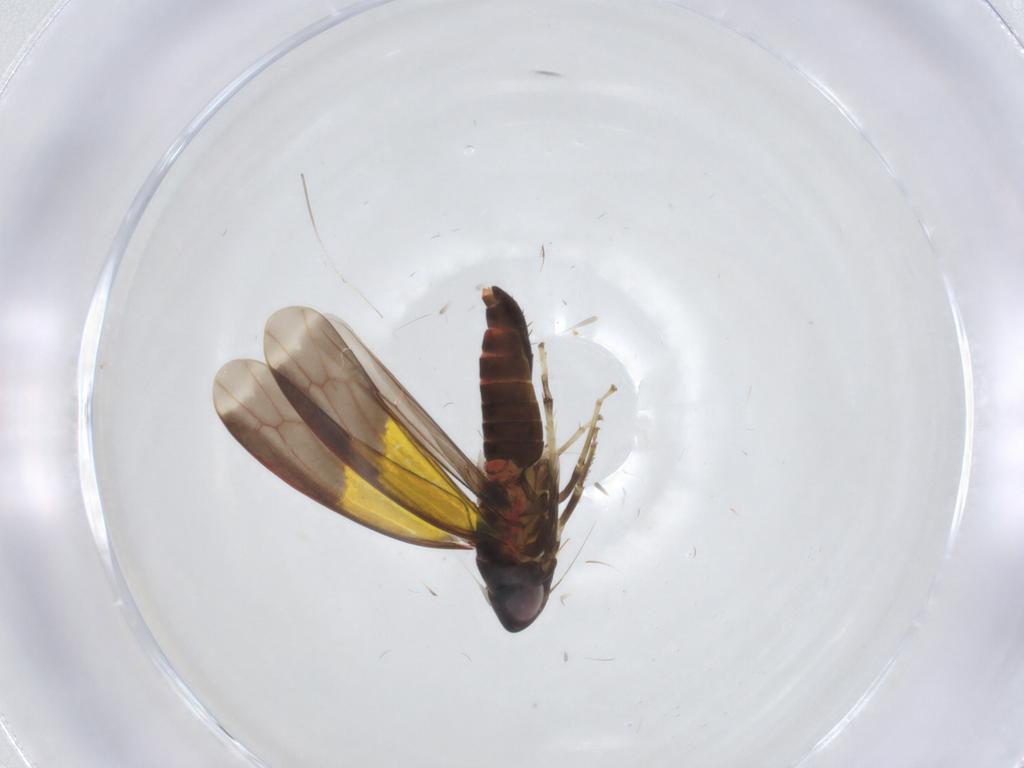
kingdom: Animalia
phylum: Arthropoda
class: Insecta
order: Hemiptera
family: Cicadellidae
